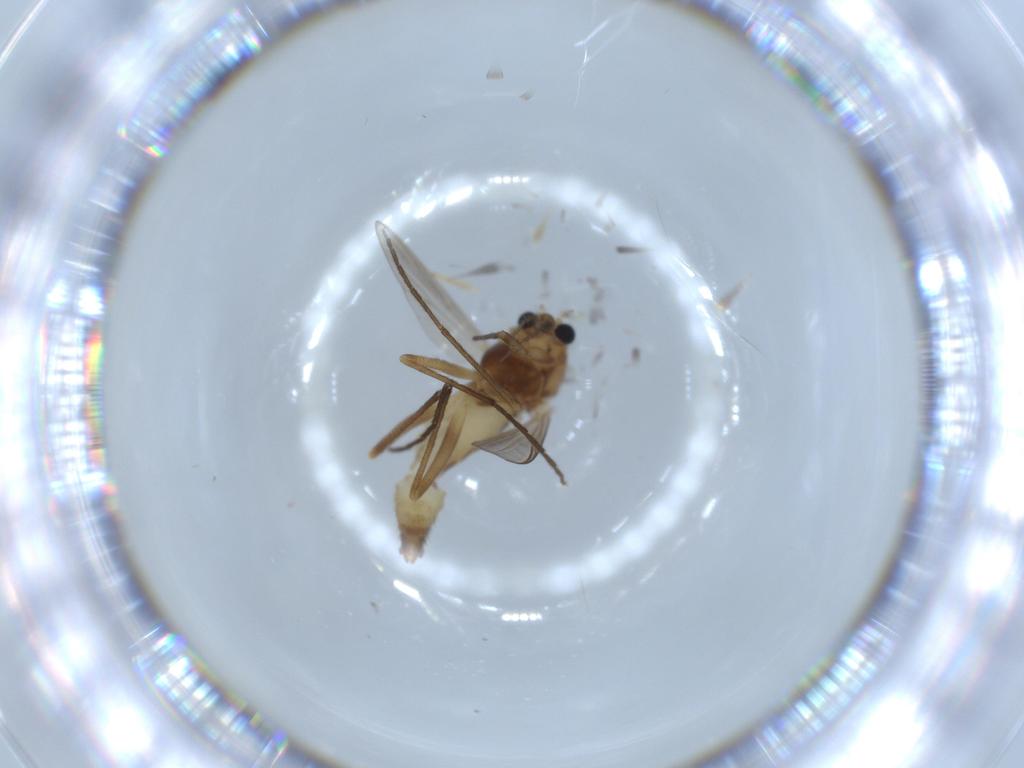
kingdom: Animalia
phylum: Arthropoda
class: Insecta
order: Diptera
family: Chironomidae
